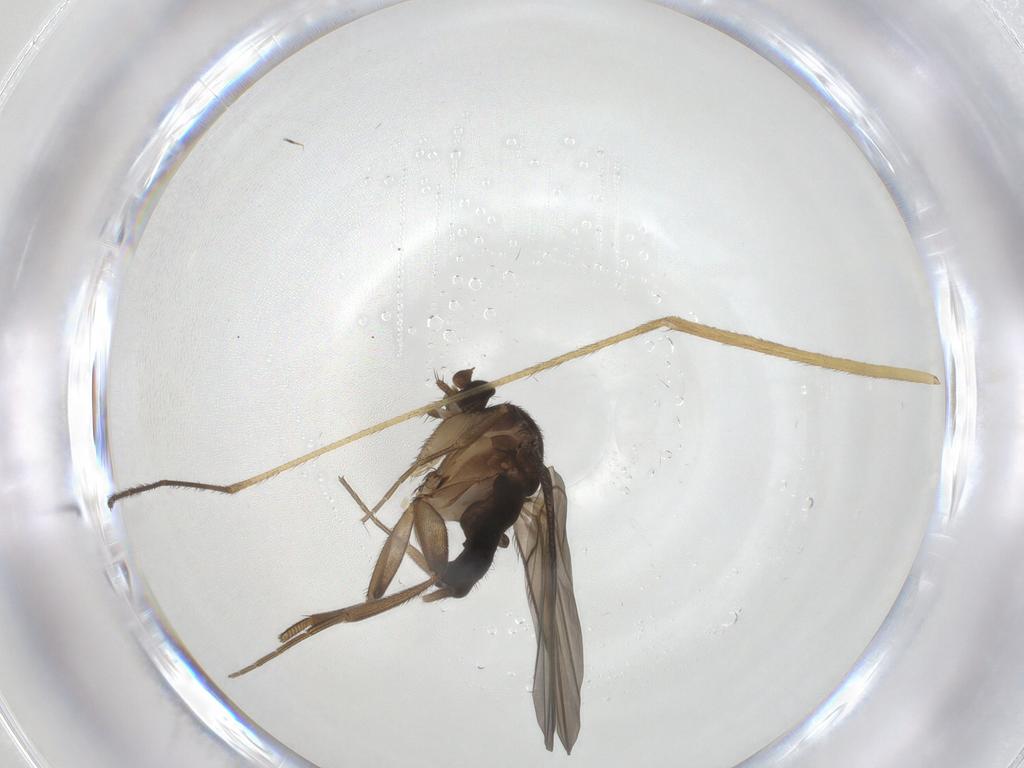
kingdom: Animalia
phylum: Arthropoda
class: Insecta
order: Diptera
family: Phoridae
